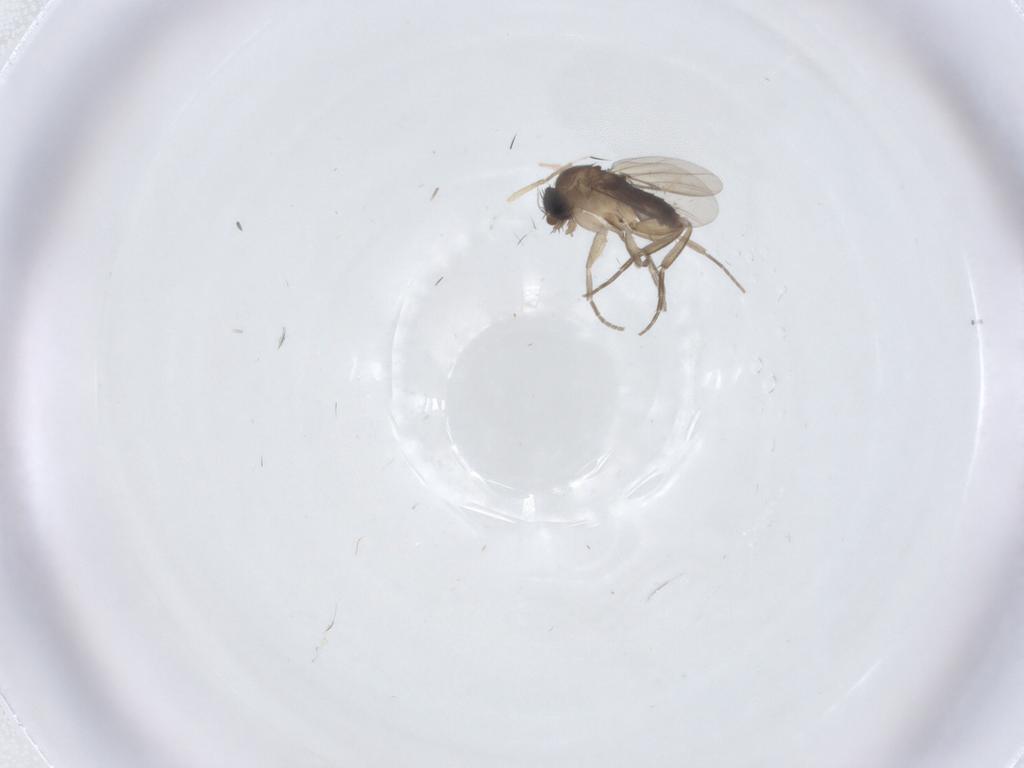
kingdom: Animalia
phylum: Arthropoda
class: Insecta
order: Diptera
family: Phoridae
